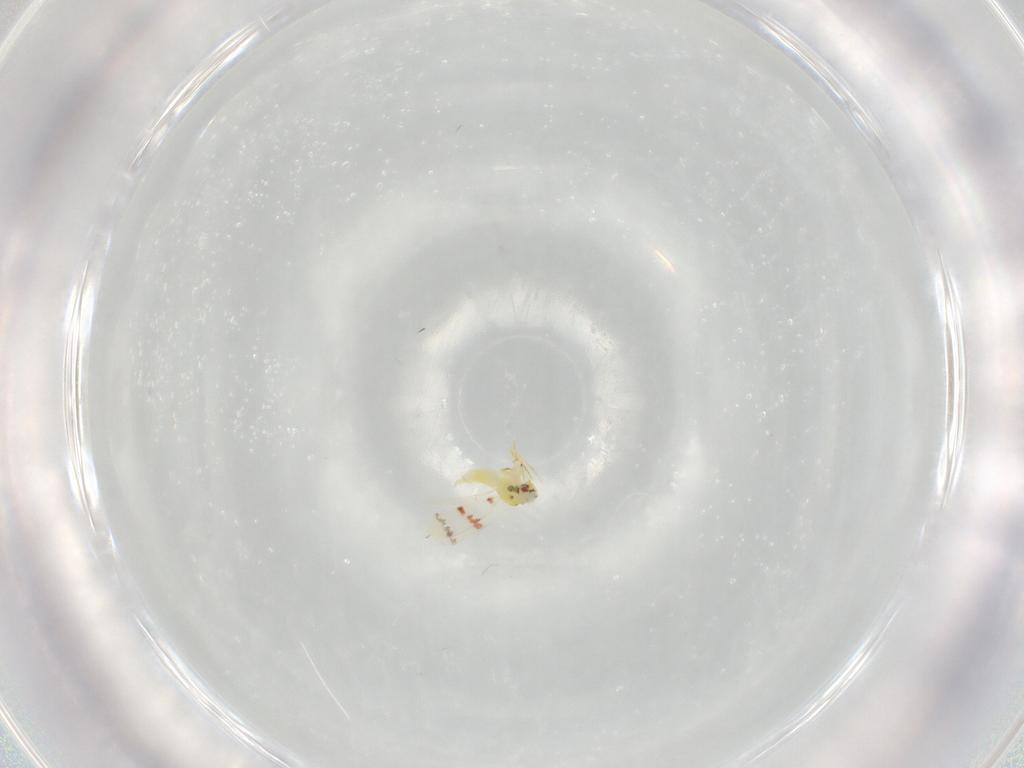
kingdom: Animalia
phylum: Arthropoda
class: Insecta
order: Hemiptera
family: Aleyrodidae
